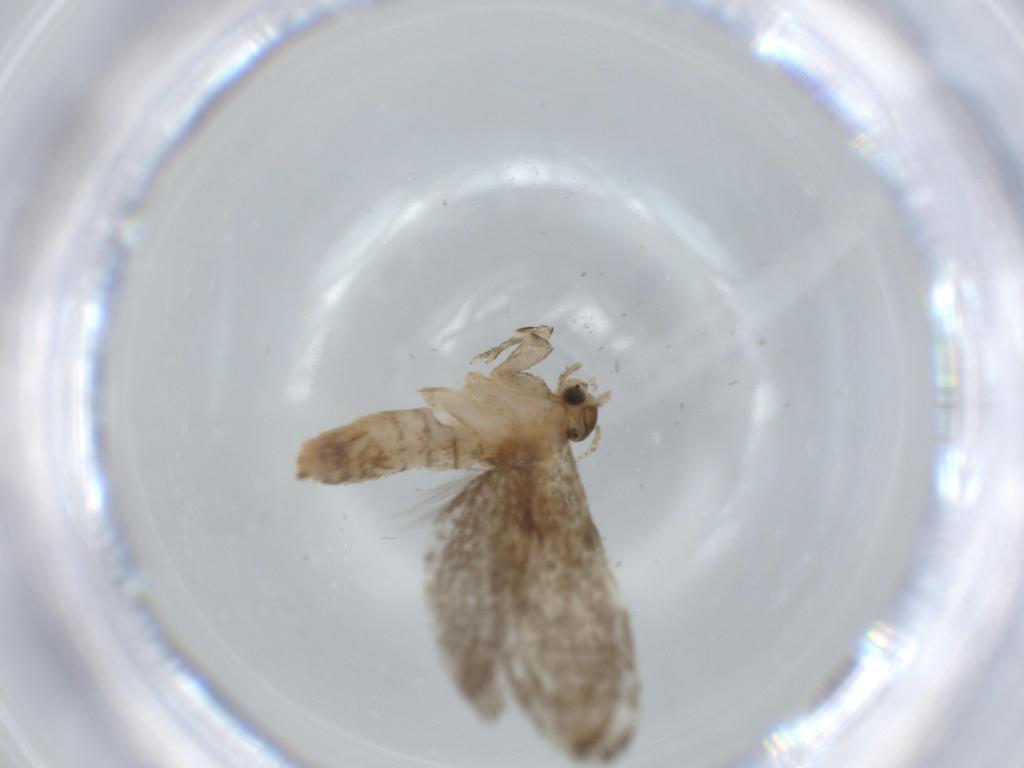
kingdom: Animalia
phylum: Arthropoda
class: Insecta
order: Lepidoptera
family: Tineidae
